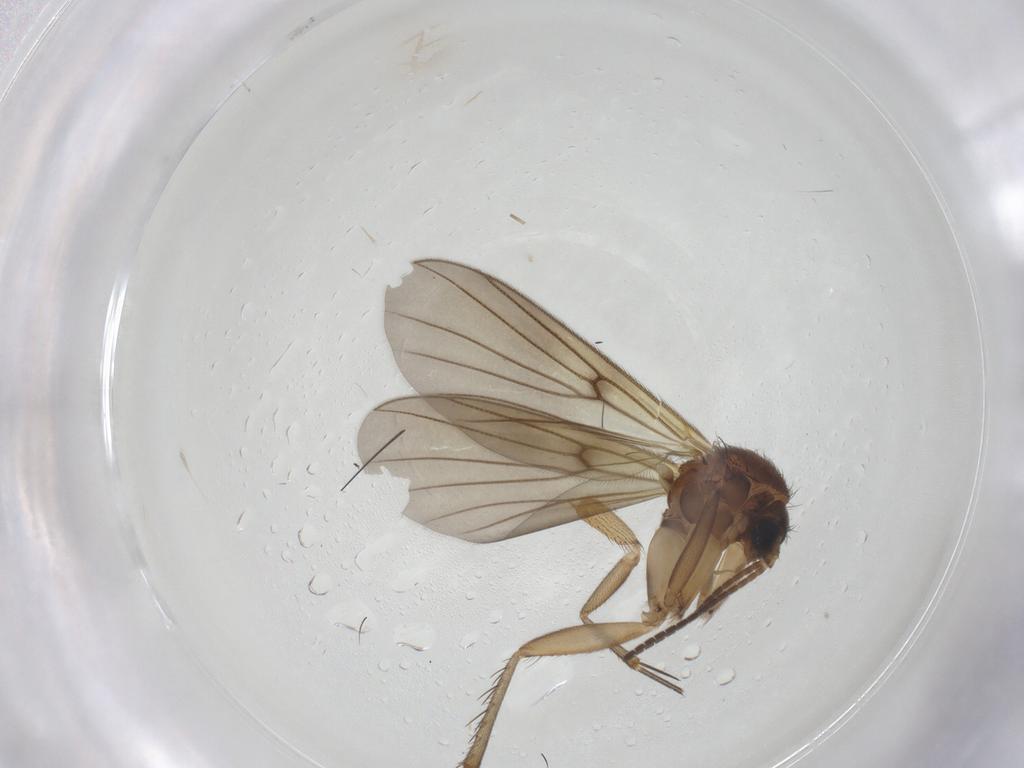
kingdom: Animalia
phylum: Arthropoda
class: Insecta
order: Diptera
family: Mycetophilidae
